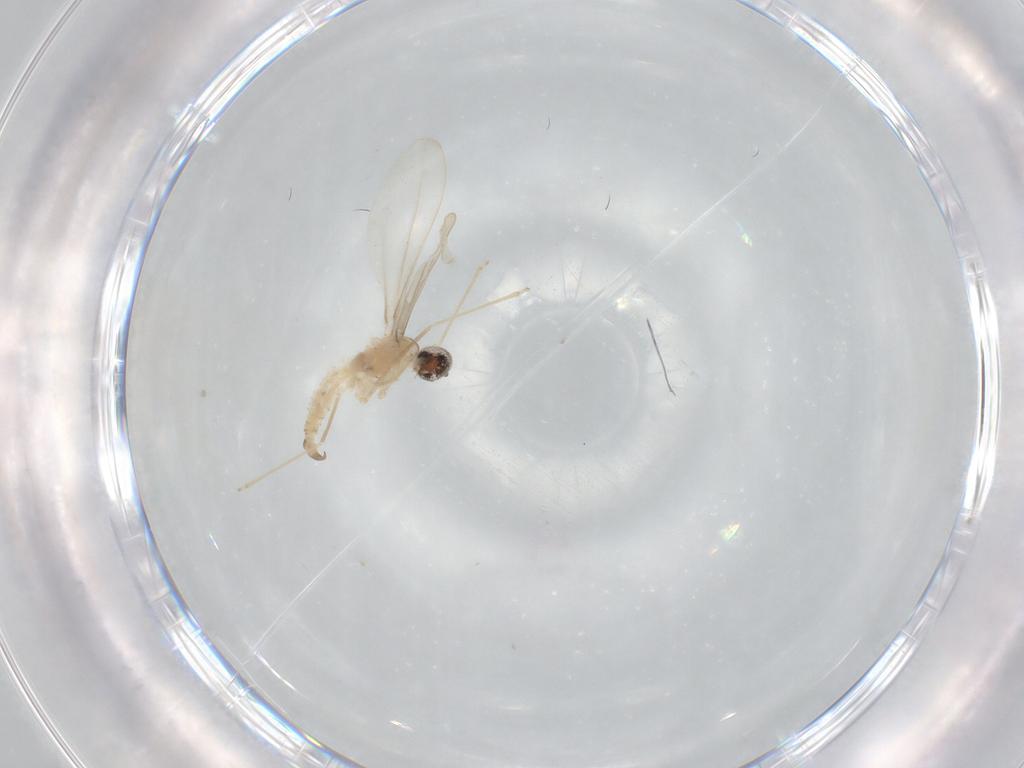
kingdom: Animalia
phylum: Arthropoda
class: Insecta
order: Diptera
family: Cecidomyiidae
